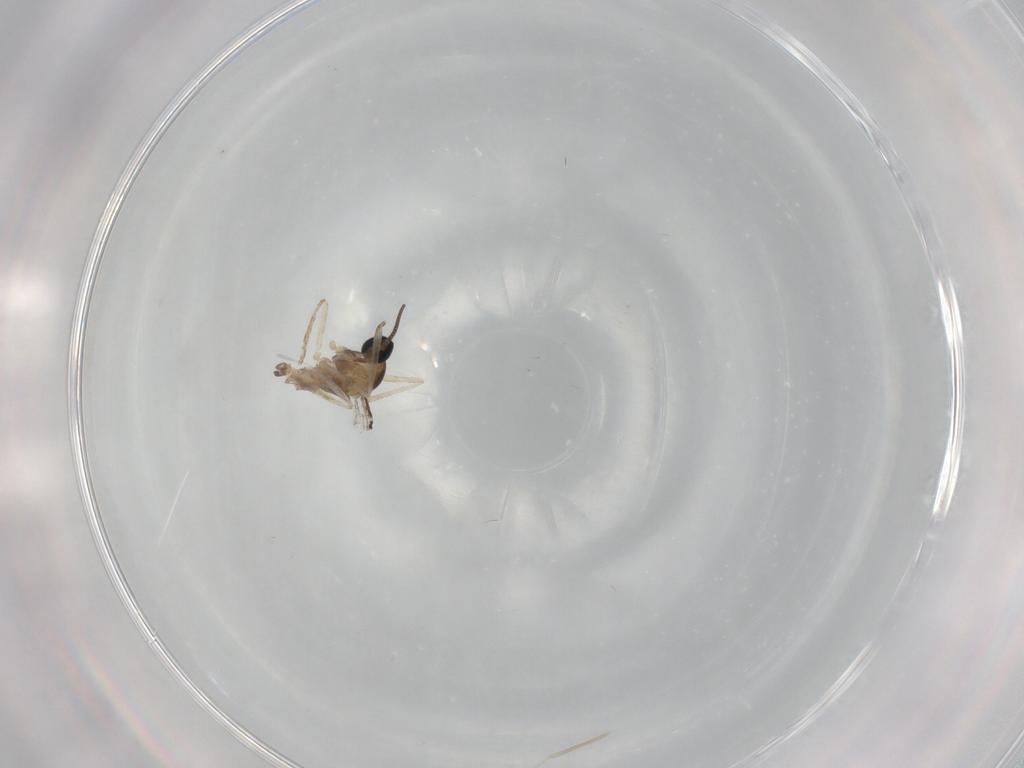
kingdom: Animalia
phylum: Arthropoda
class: Insecta
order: Diptera
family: Cecidomyiidae
